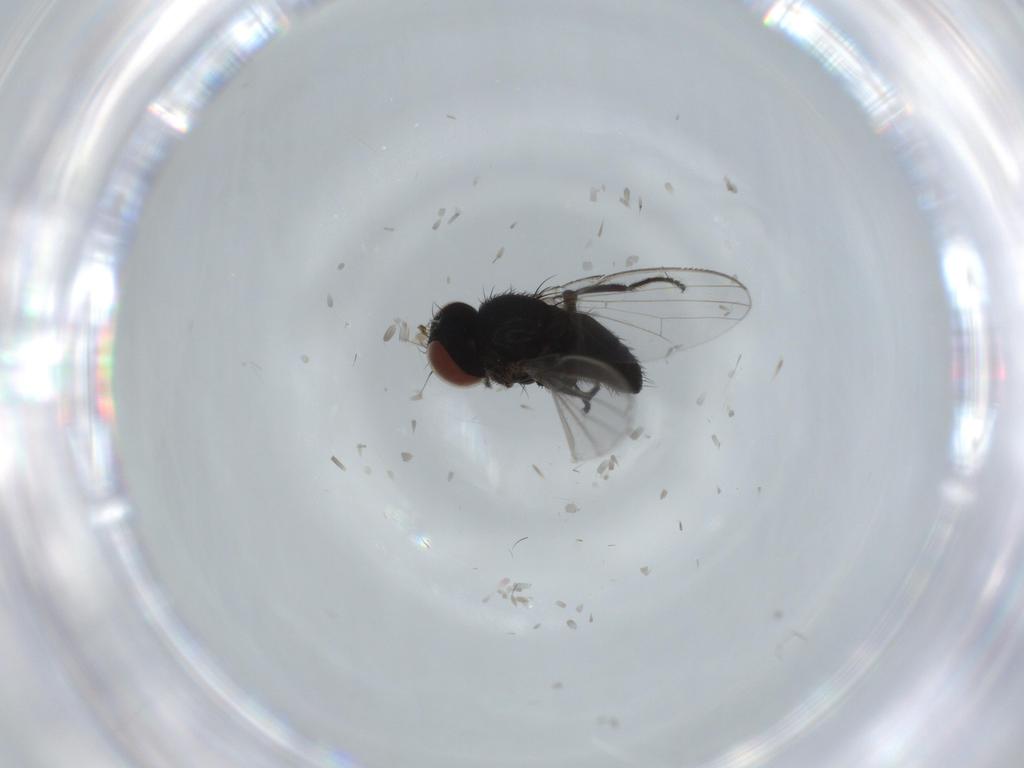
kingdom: Animalia
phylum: Arthropoda
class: Insecta
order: Diptera
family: Milichiidae
